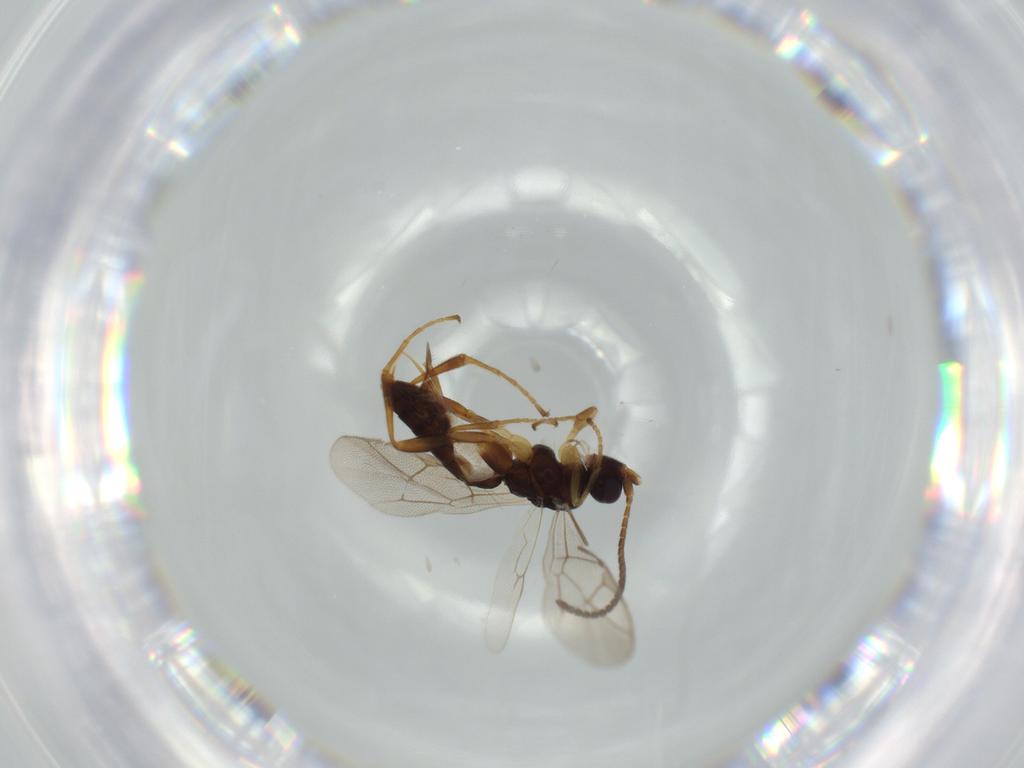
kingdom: Animalia
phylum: Arthropoda
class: Insecta
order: Hymenoptera
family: Ichneumonidae
